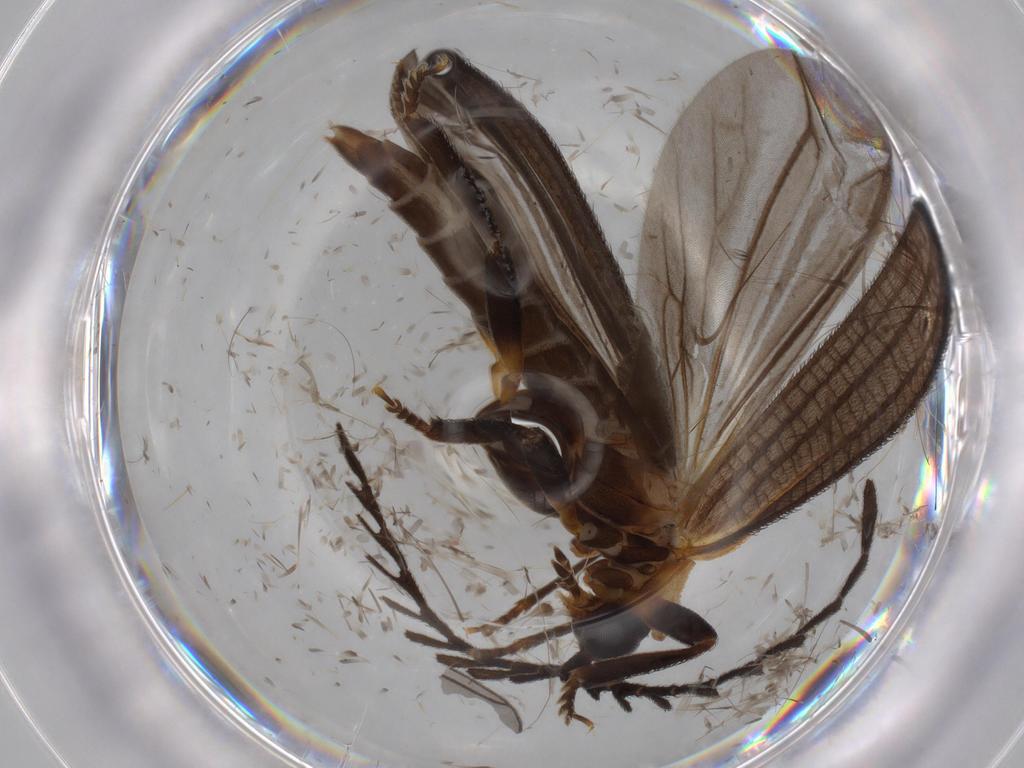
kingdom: Animalia
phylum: Arthropoda
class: Insecta
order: Coleoptera
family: Lycidae
